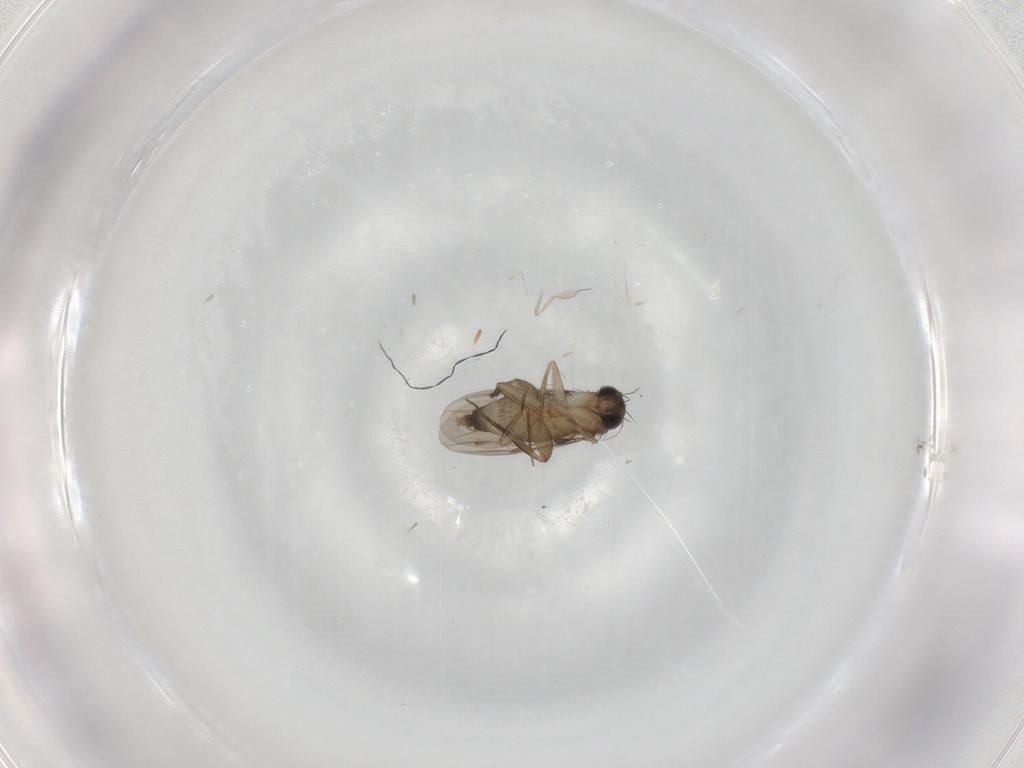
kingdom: Animalia
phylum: Arthropoda
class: Insecta
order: Diptera
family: Phoridae
